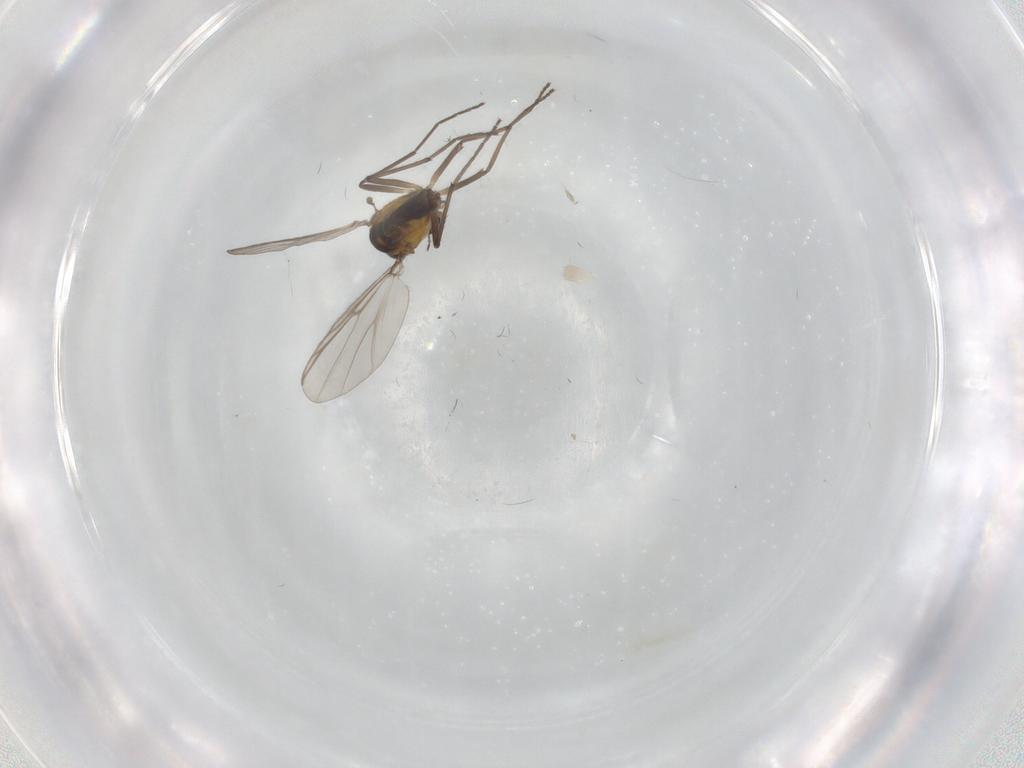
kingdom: Animalia
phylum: Arthropoda
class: Insecta
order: Diptera
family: Chironomidae
